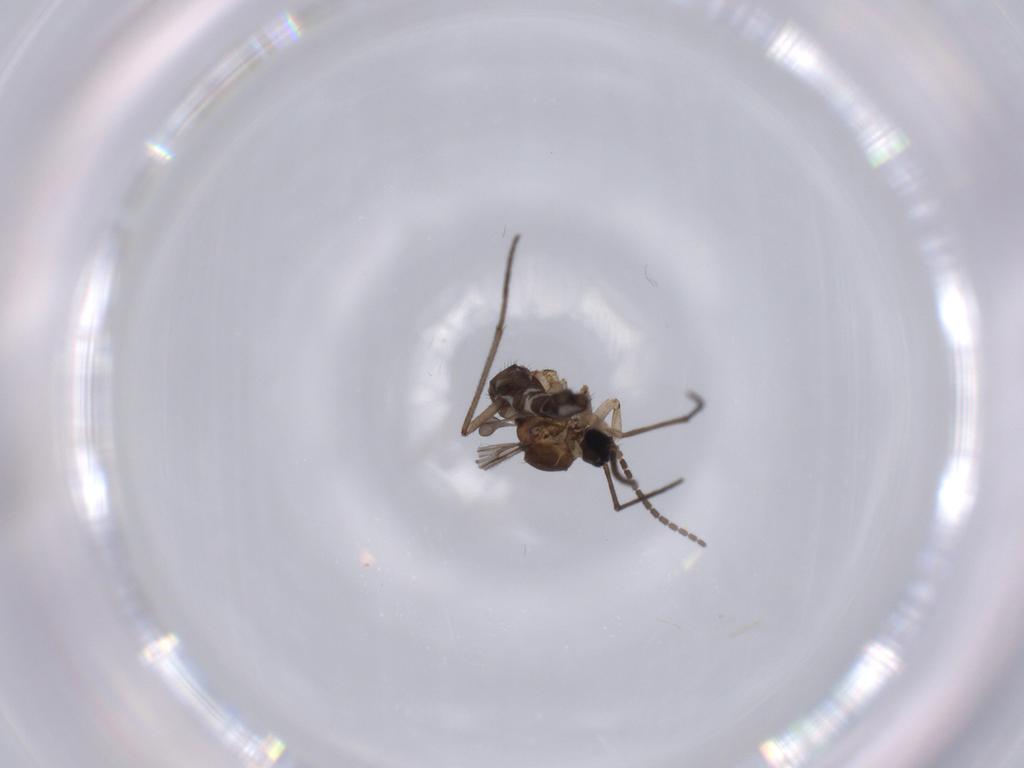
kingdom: Animalia
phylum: Arthropoda
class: Insecta
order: Diptera
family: Sciaridae
